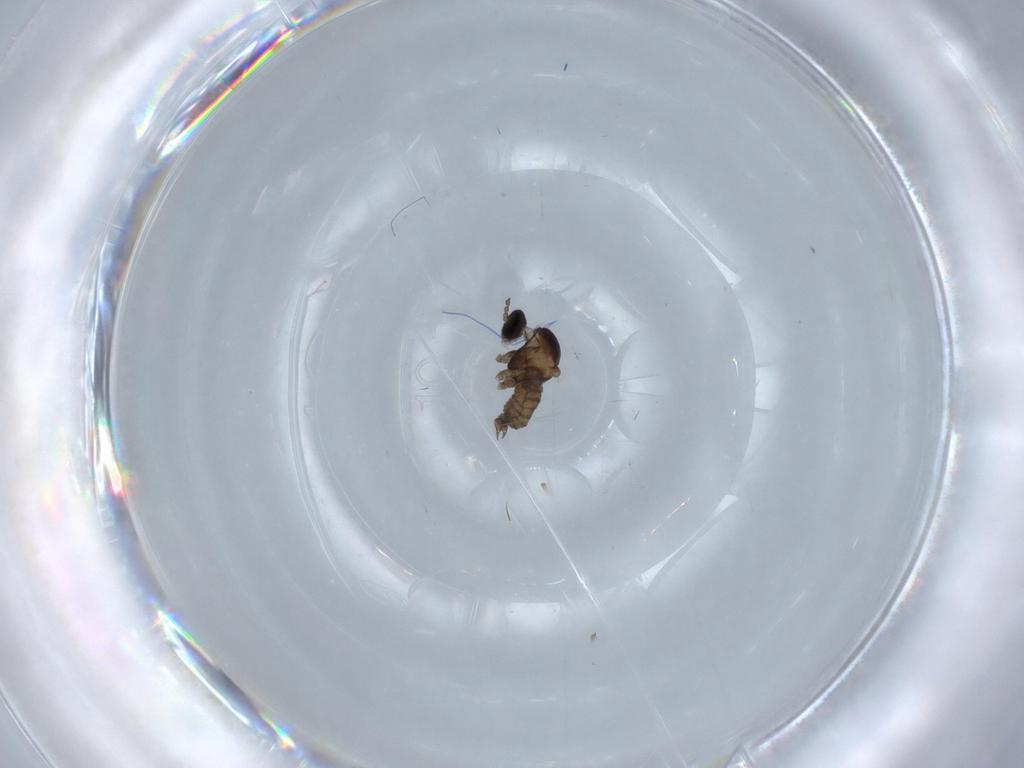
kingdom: Animalia
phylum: Arthropoda
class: Insecta
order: Diptera
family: Cecidomyiidae
